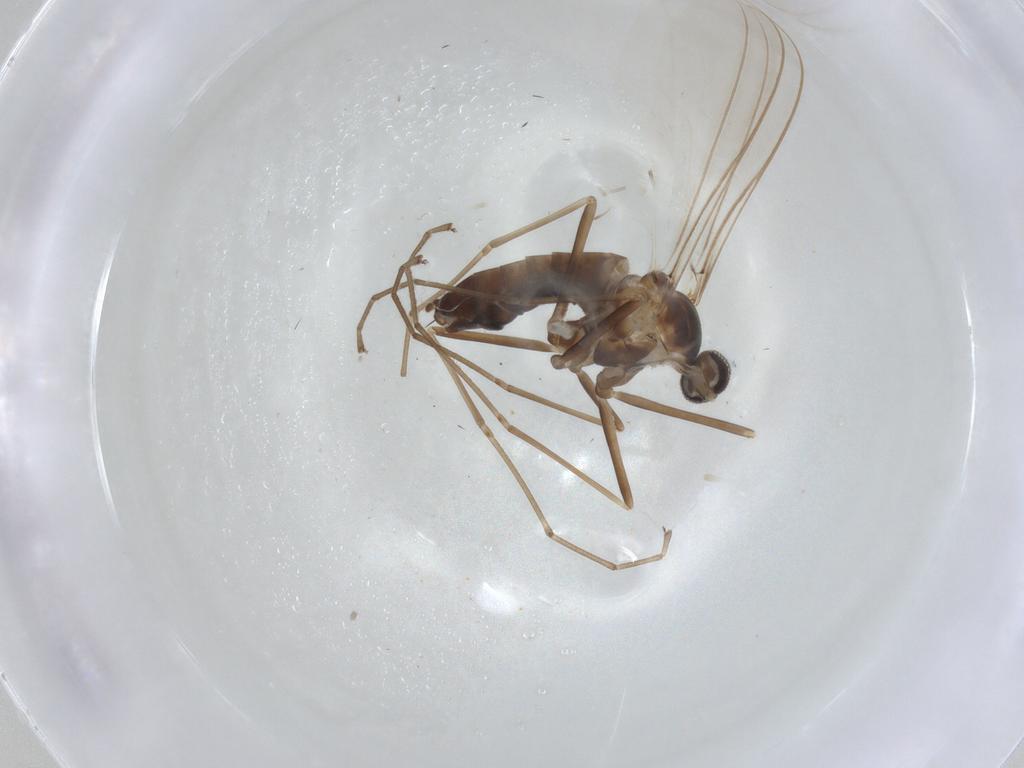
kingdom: Animalia
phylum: Arthropoda
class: Insecta
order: Diptera
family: Cecidomyiidae
